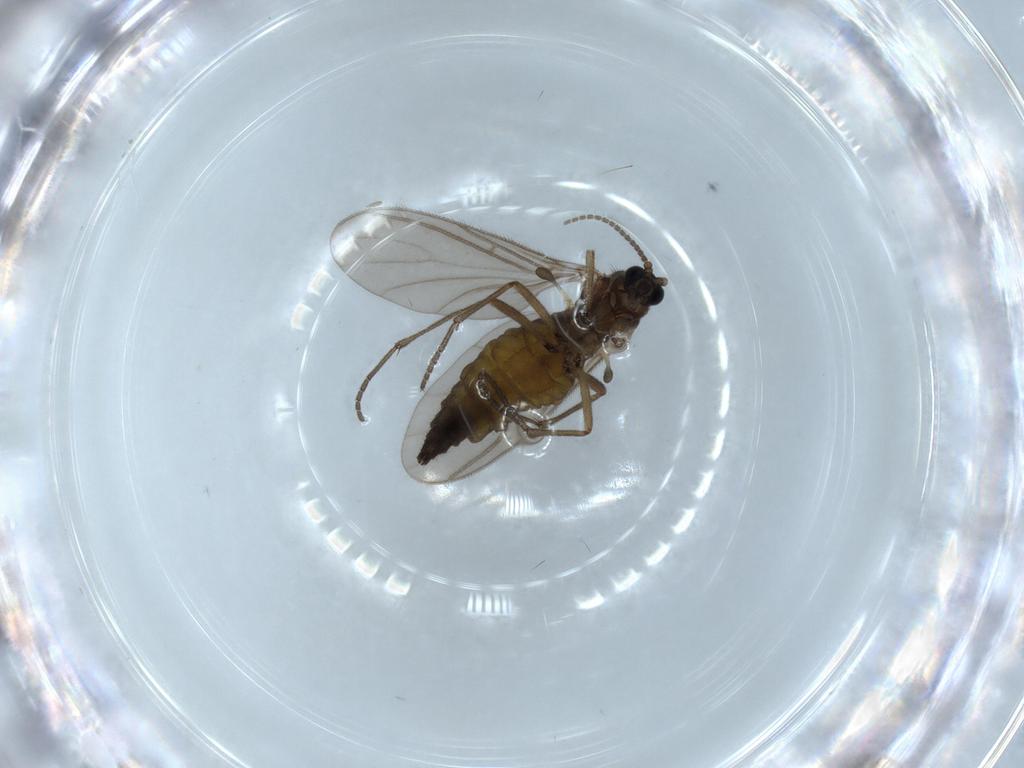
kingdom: Animalia
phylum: Arthropoda
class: Insecta
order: Diptera
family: Sciaridae
